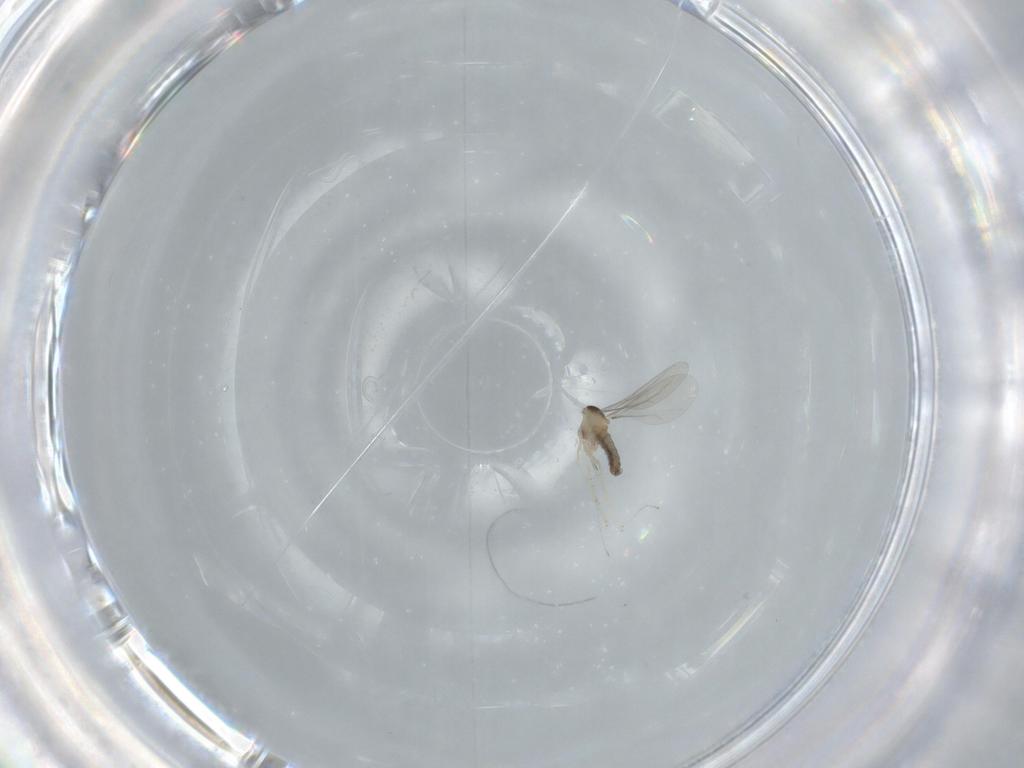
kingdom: Animalia
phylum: Arthropoda
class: Insecta
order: Diptera
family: Cecidomyiidae
